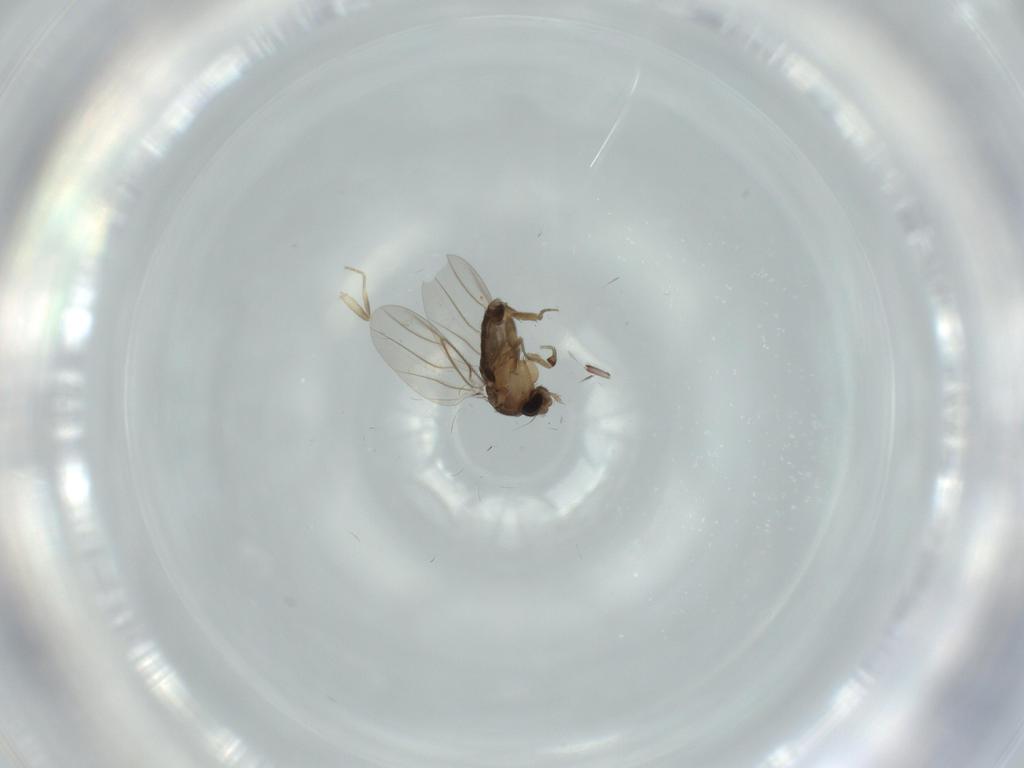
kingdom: Animalia
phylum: Arthropoda
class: Insecta
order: Diptera
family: Phoridae
